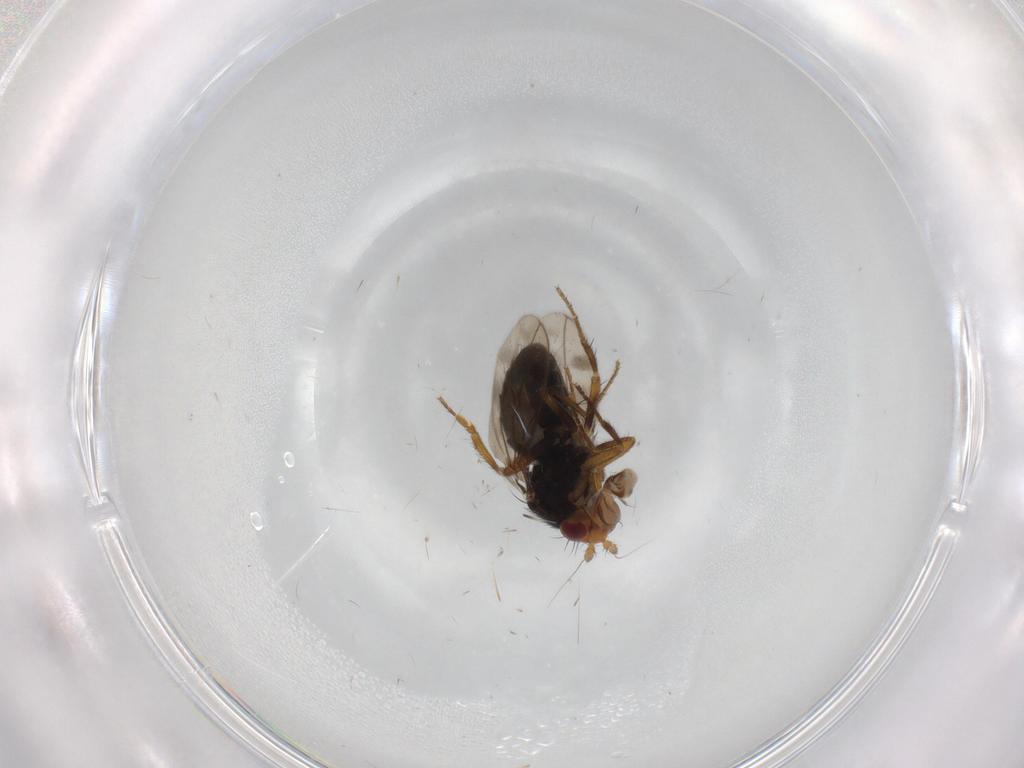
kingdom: Animalia
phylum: Arthropoda
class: Insecta
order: Diptera
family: Sphaeroceridae
